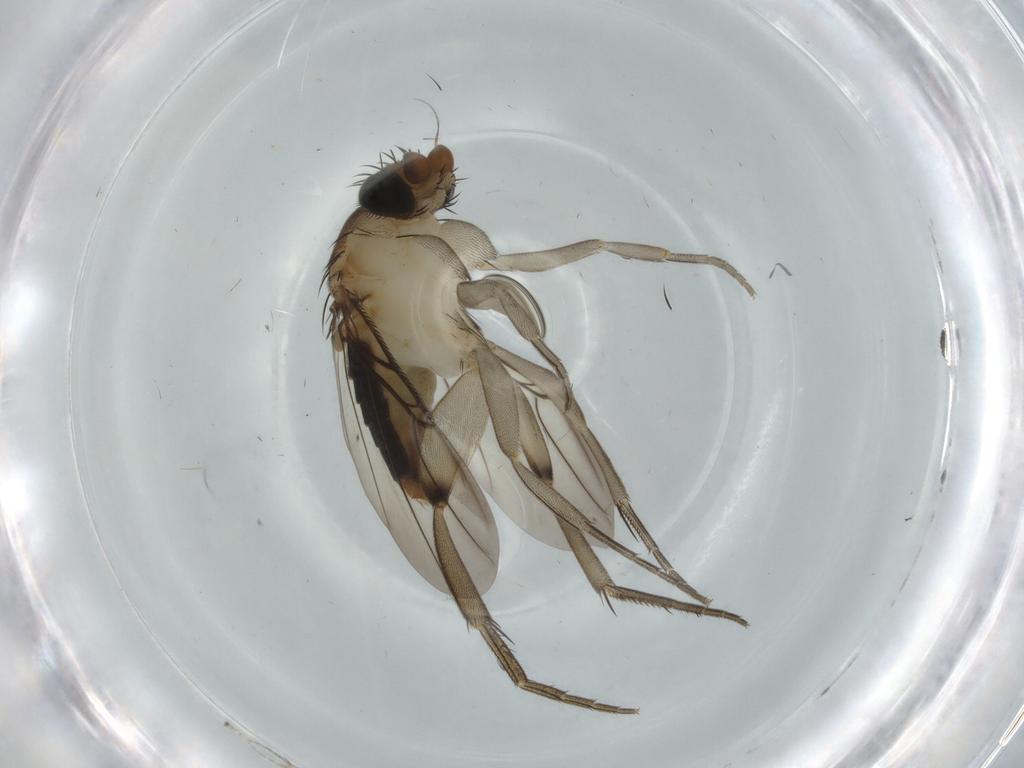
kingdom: Animalia
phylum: Arthropoda
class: Insecta
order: Diptera
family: Phoridae
